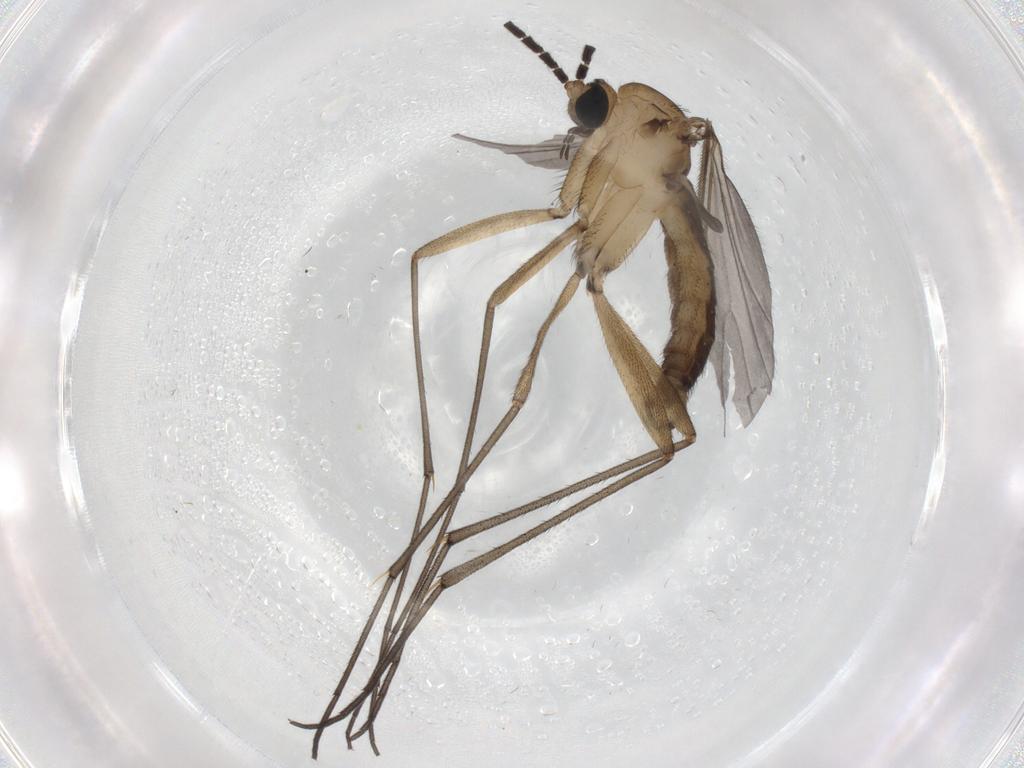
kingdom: Animalia
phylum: Arthropoda
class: Insecta
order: Diptera
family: Sciaridae
